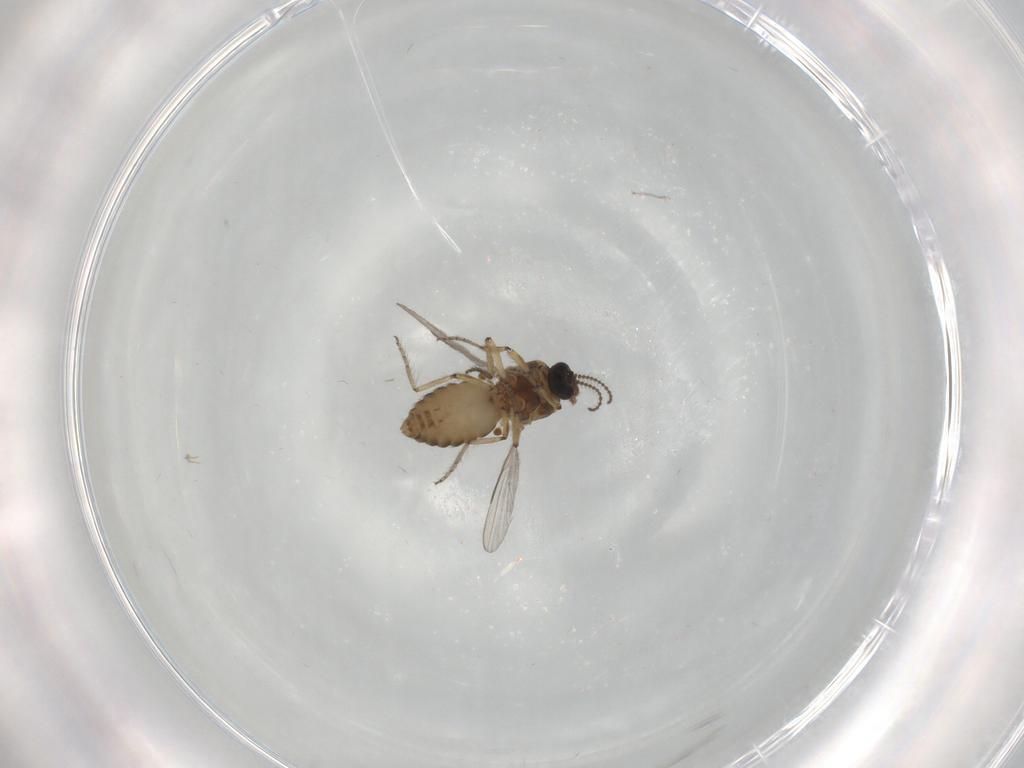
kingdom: Animalia
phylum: Arthropoda
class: Insecta
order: Diptera
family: Ceratopogonidae
